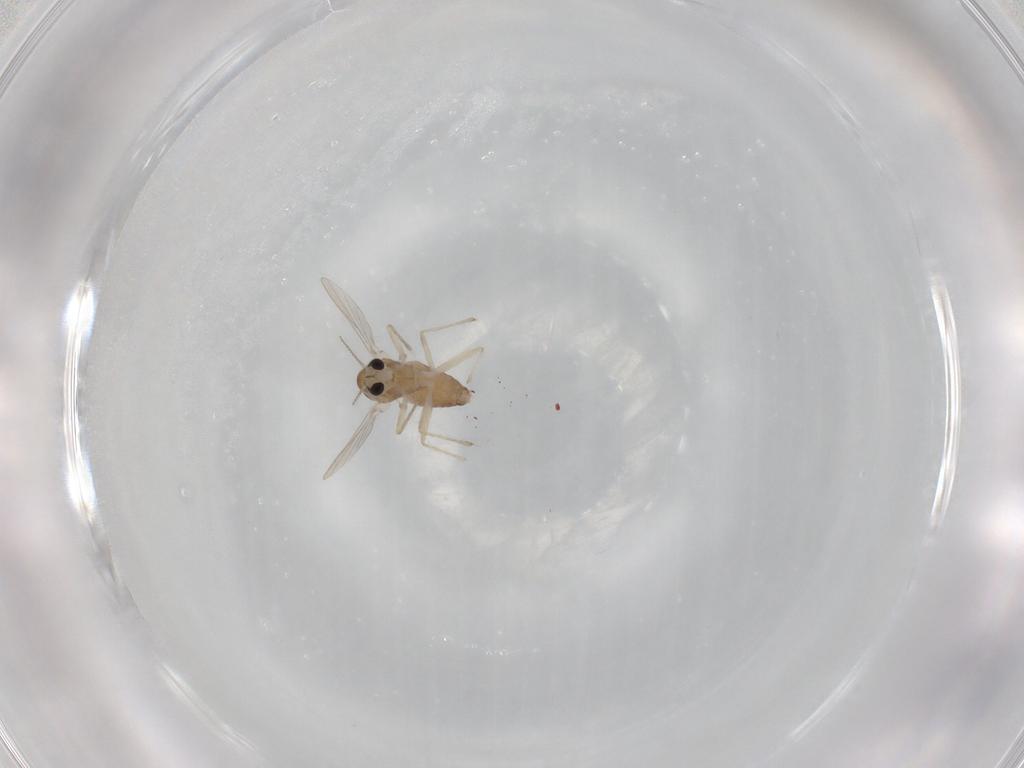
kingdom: Animalia
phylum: Arthropoda
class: Insecta
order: Diptera
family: Chironomidae
